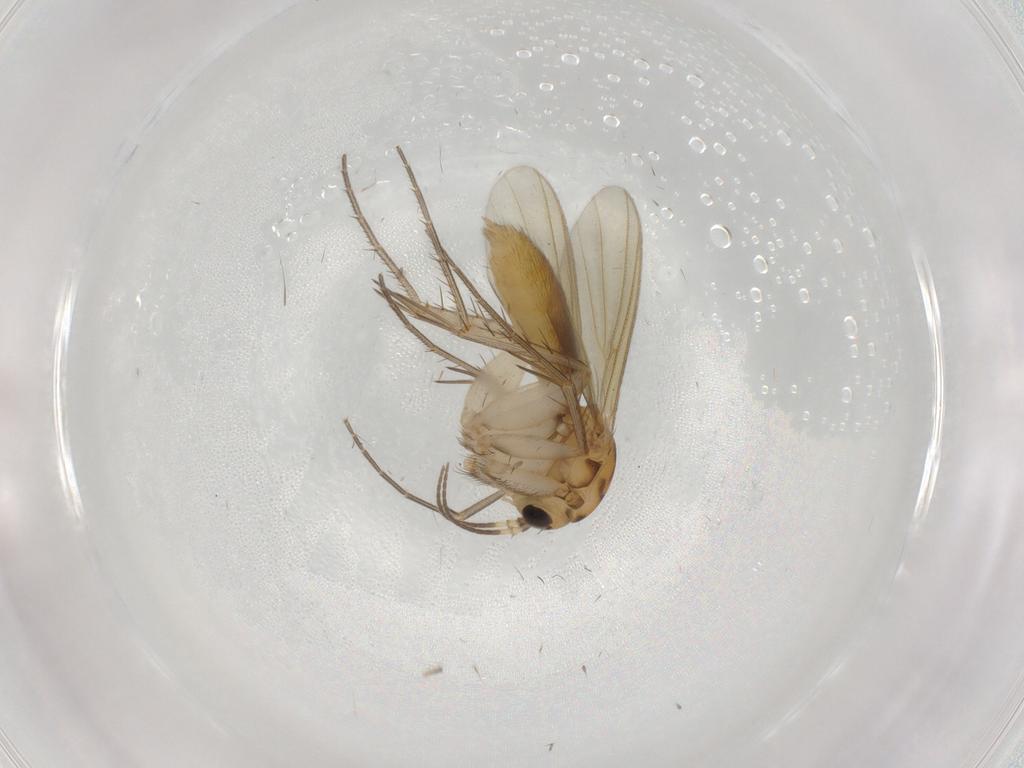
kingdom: Animalia
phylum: Arthropoda
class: Insecta
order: Diptera
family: Mycetophilidae
